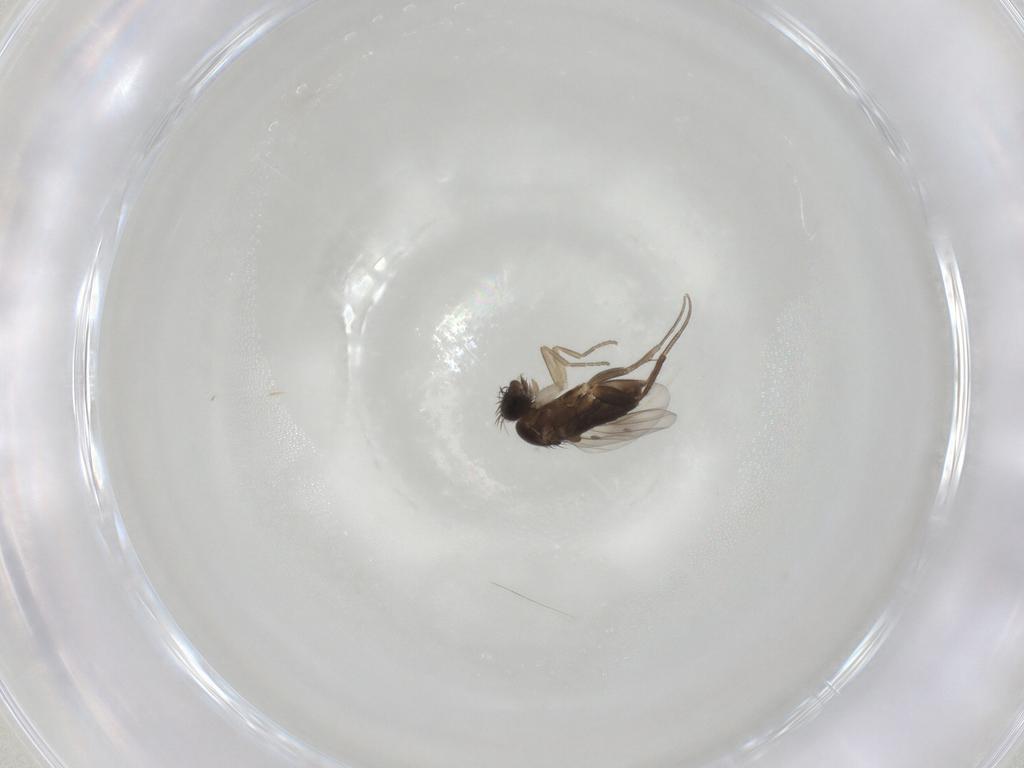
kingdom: Animalia
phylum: Arthropoda
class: Insecta
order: Diptera
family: Phoridae
